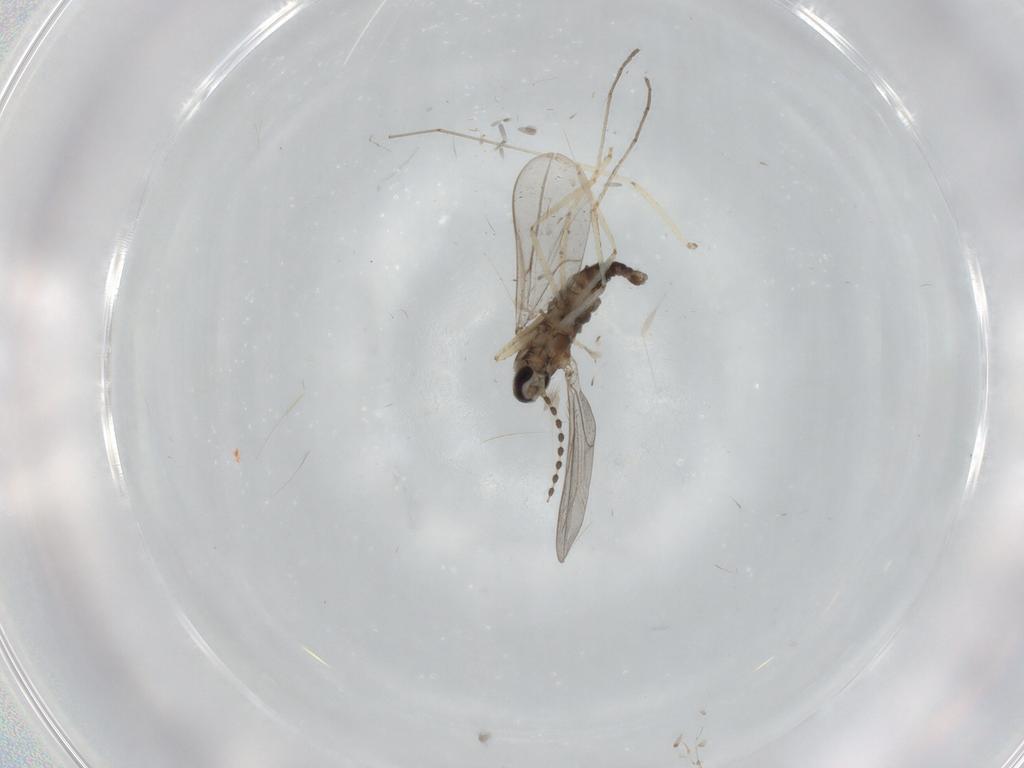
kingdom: Animalia
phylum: Arthropoda
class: Insecta
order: Diptera
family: Cecidomyiidae
